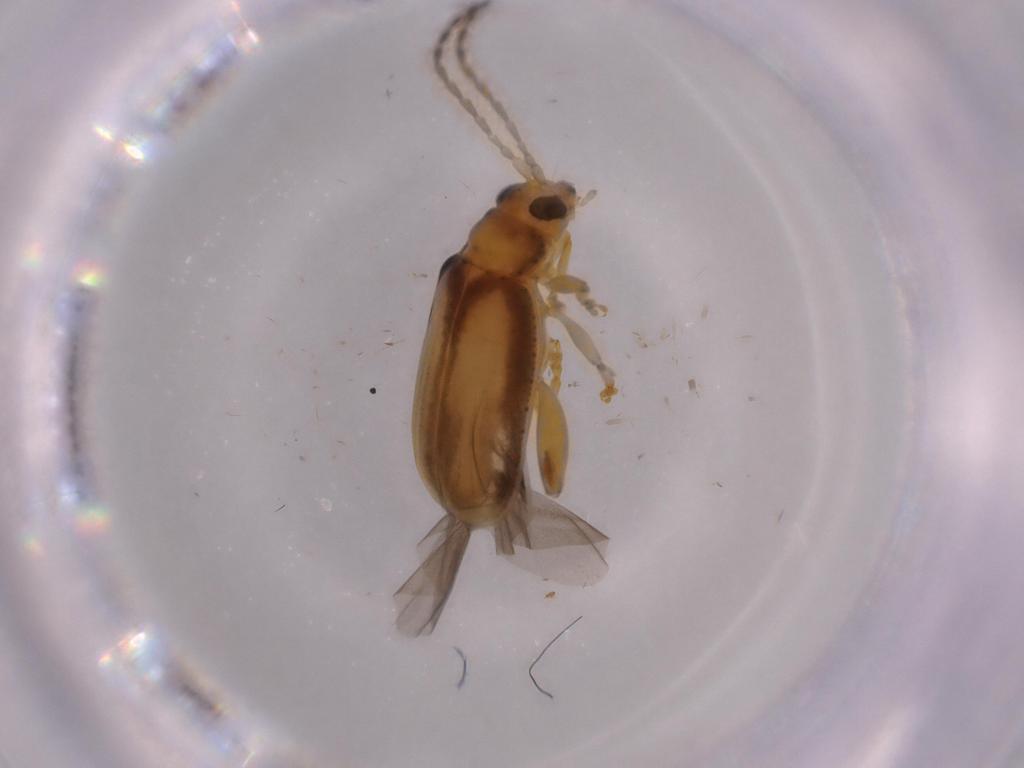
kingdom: Animalia
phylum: Arthropoda
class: Insecta
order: Coleoptera
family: Chrysomelidae
